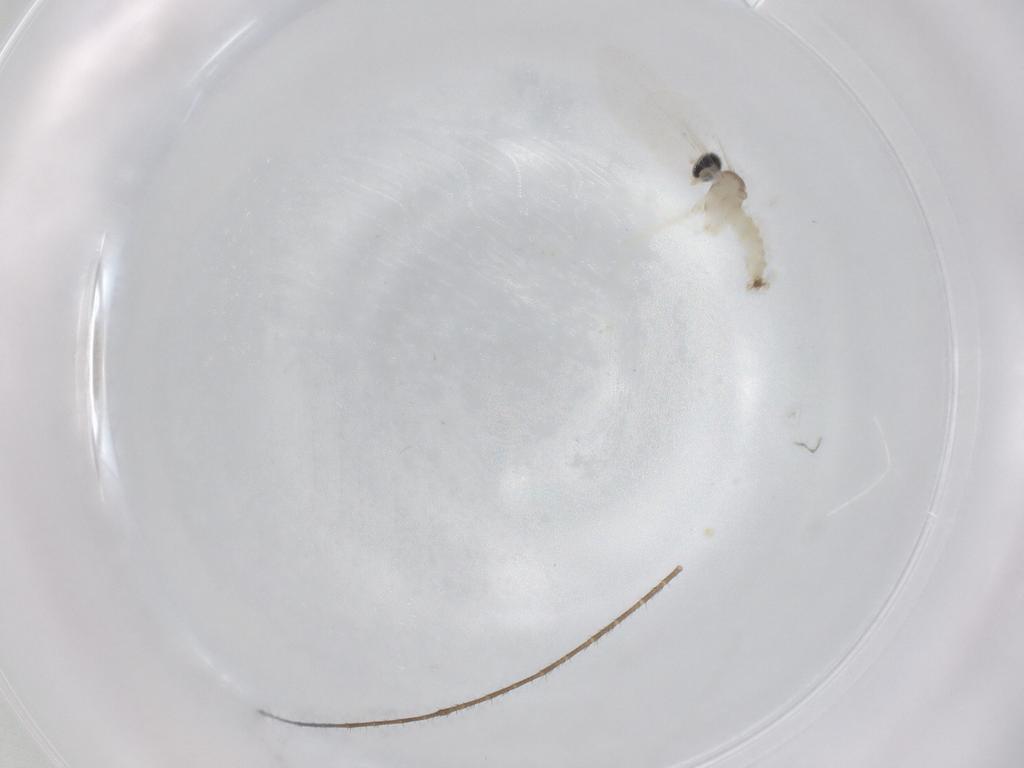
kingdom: Animalia
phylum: Arthropoda
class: Insecta
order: Diptera
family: Cecidomyiidae
